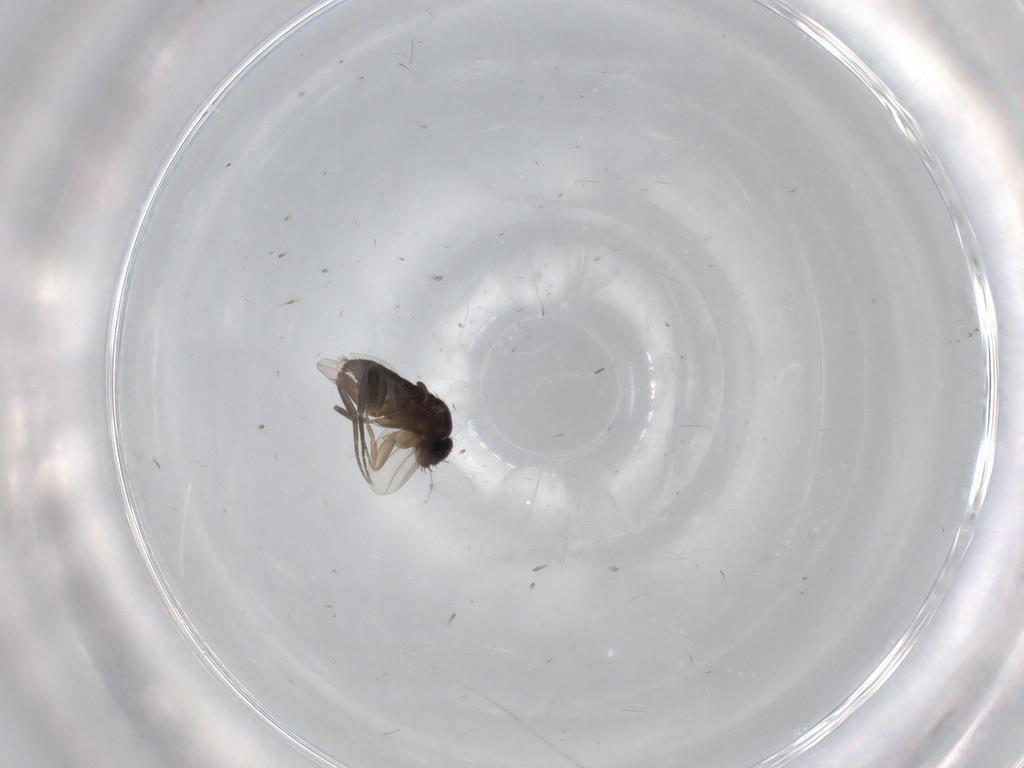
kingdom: Animalia
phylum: Arthropoda
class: Insecta
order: Diptera
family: Phoridae
